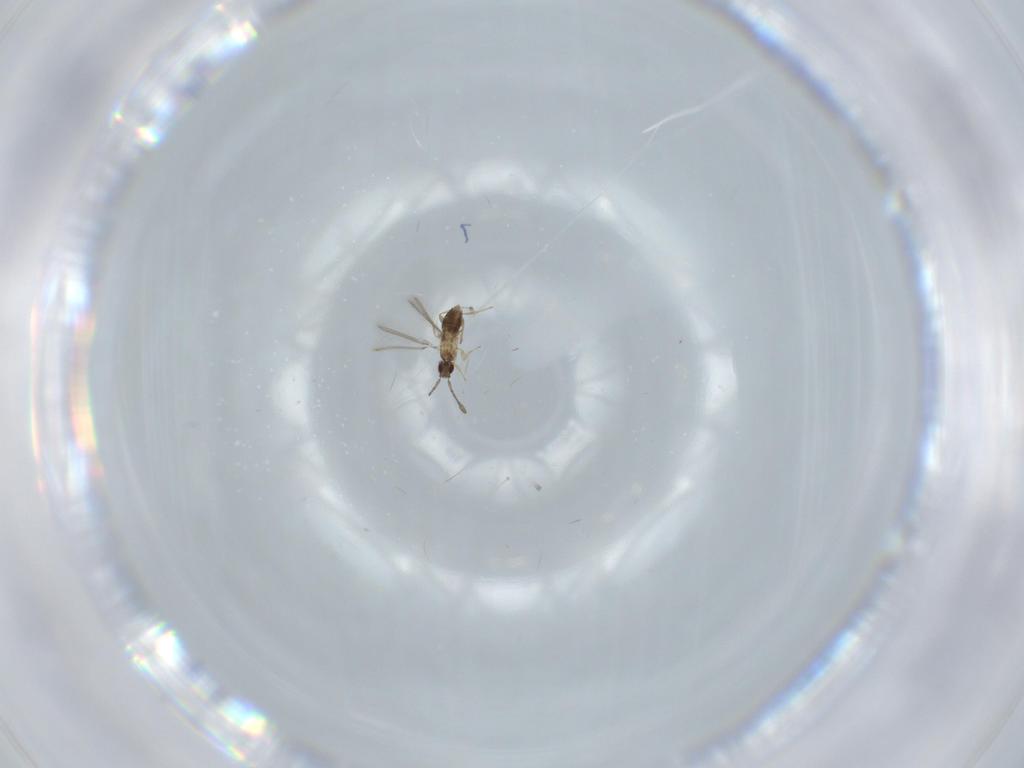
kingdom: Animalia
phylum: Arthropoda
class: Insecta
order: Hymenoptera
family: Mymaridae
